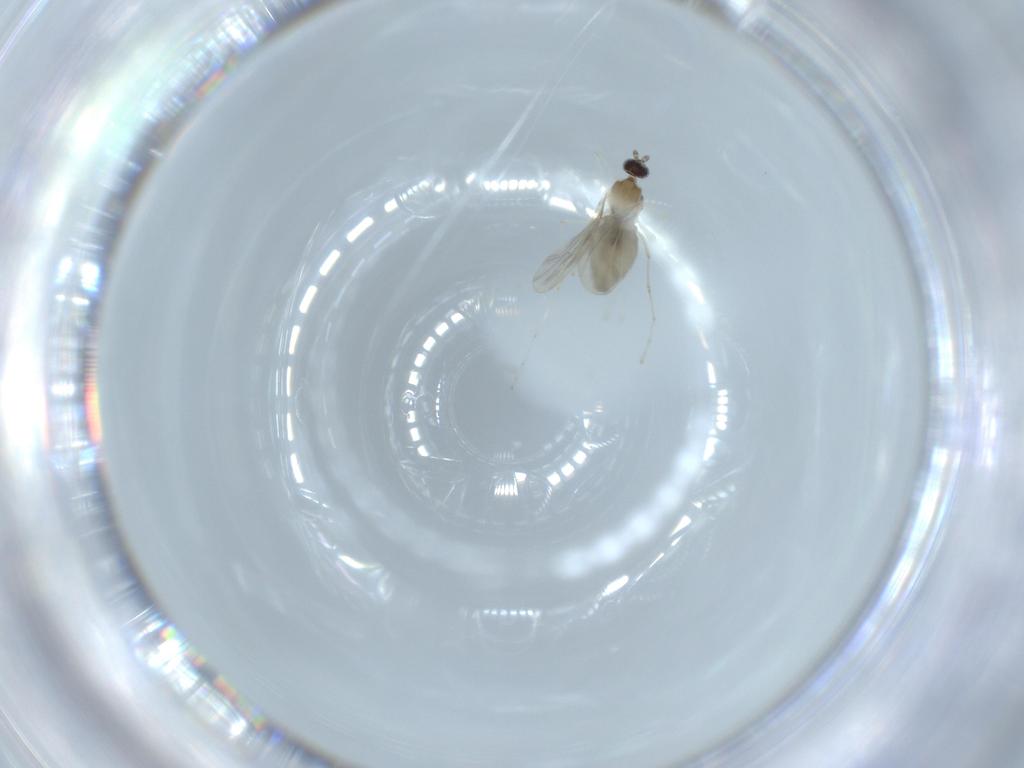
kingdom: Animalia
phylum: Arthropoda
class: Insecta
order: Diptera
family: Cecidomyiidae
